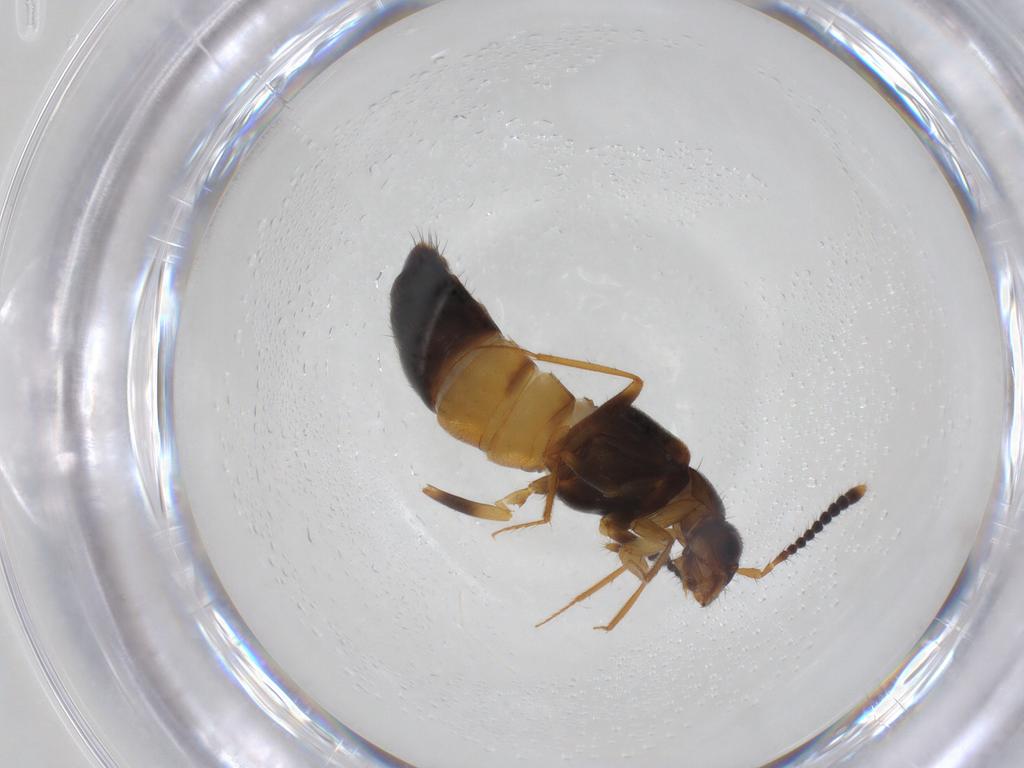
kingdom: Animalia
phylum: Arthropoda
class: Insecta
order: Coleoptera
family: Staphylinidae
